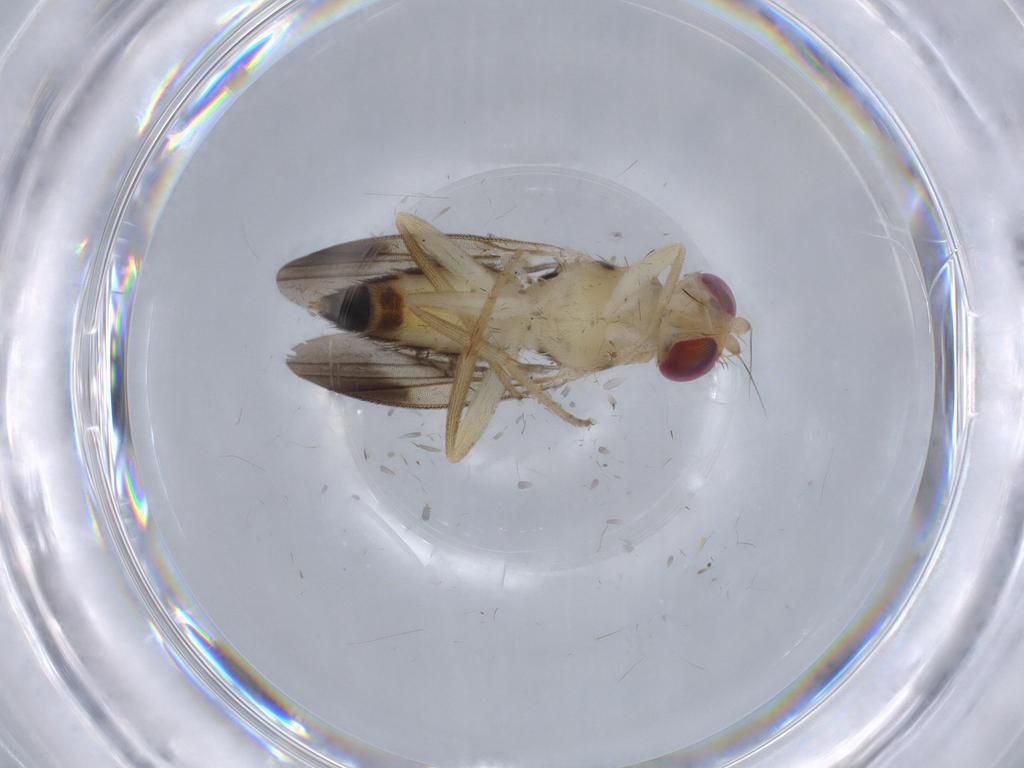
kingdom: Animalia
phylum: Arthropoda
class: Insecta
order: Diptera
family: Clusiidae
